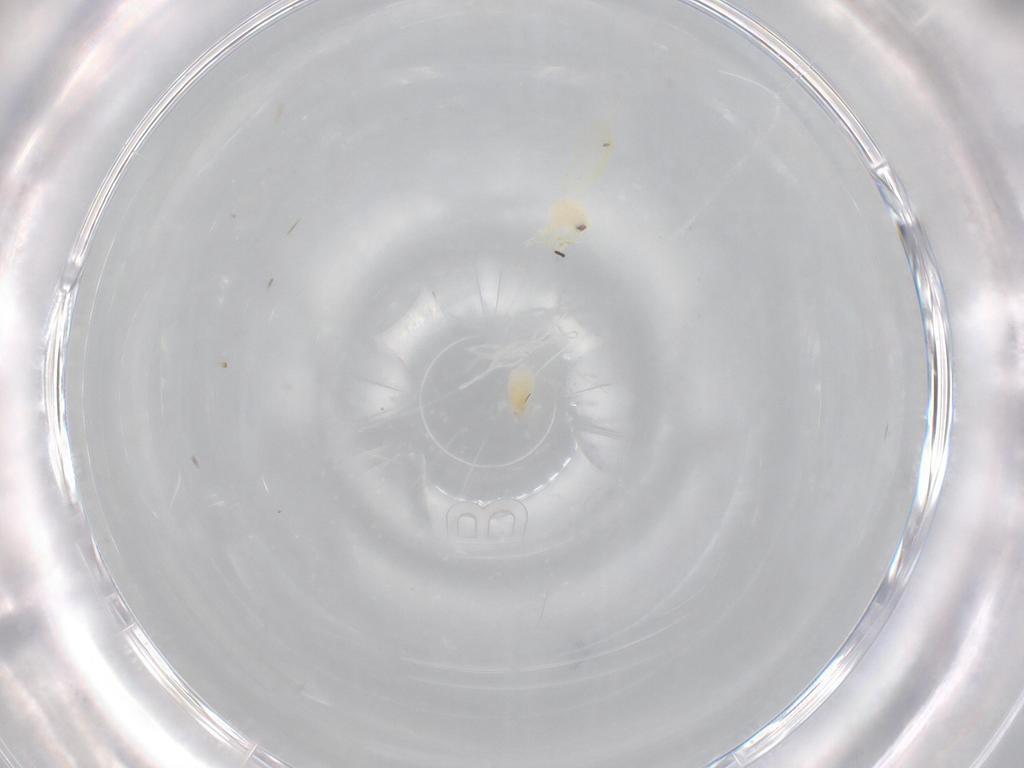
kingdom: Animalia
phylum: Arthropoda
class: Insecta
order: Hemiptera
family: Aleyrodidae
